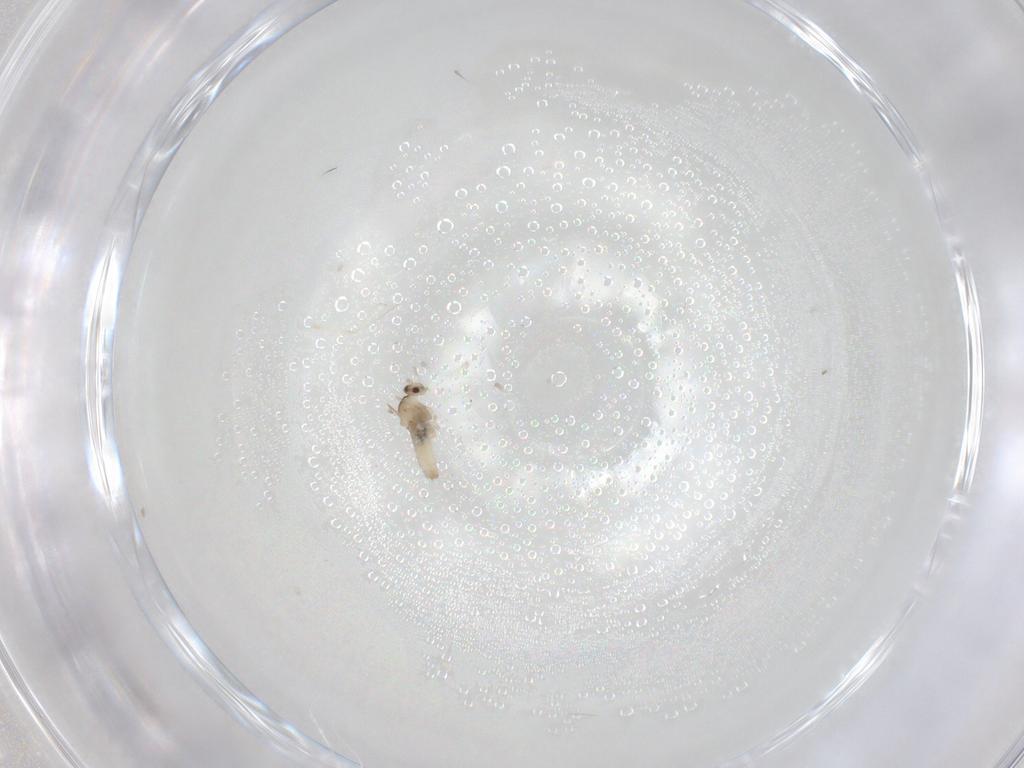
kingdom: Animalia
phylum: Arthropoda
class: Insecta
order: Diptera
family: Cecidomyiidae
